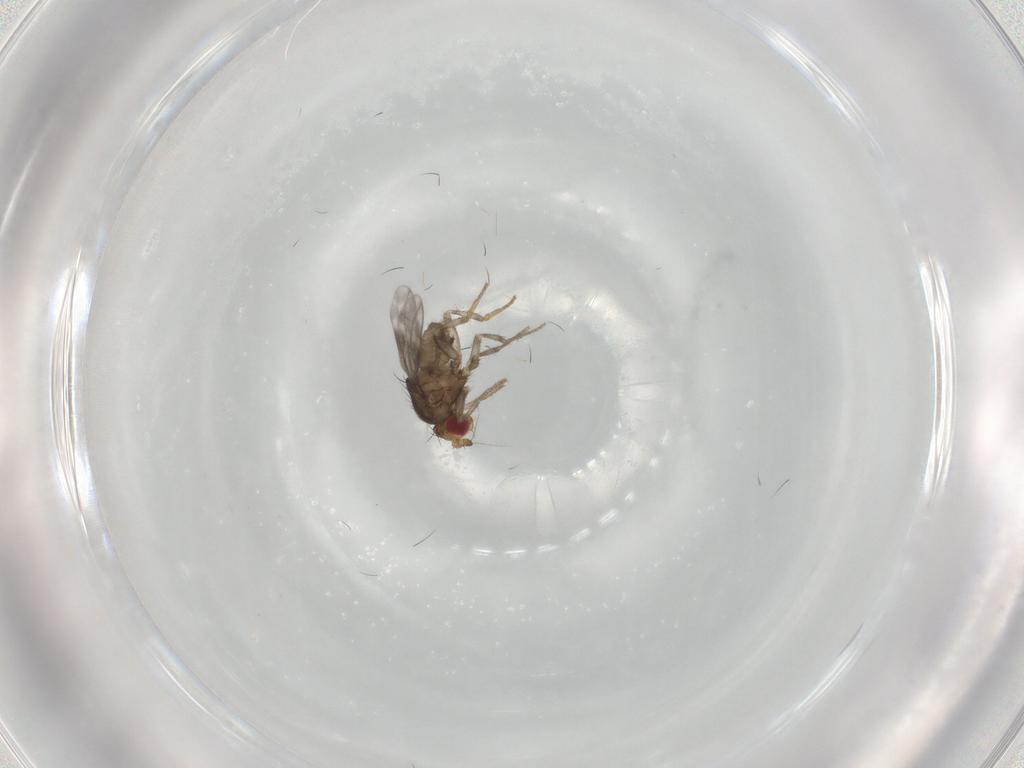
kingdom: Animalia
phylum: Arthropoda
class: Insecta
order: Diptera
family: Sphaeroceridae
